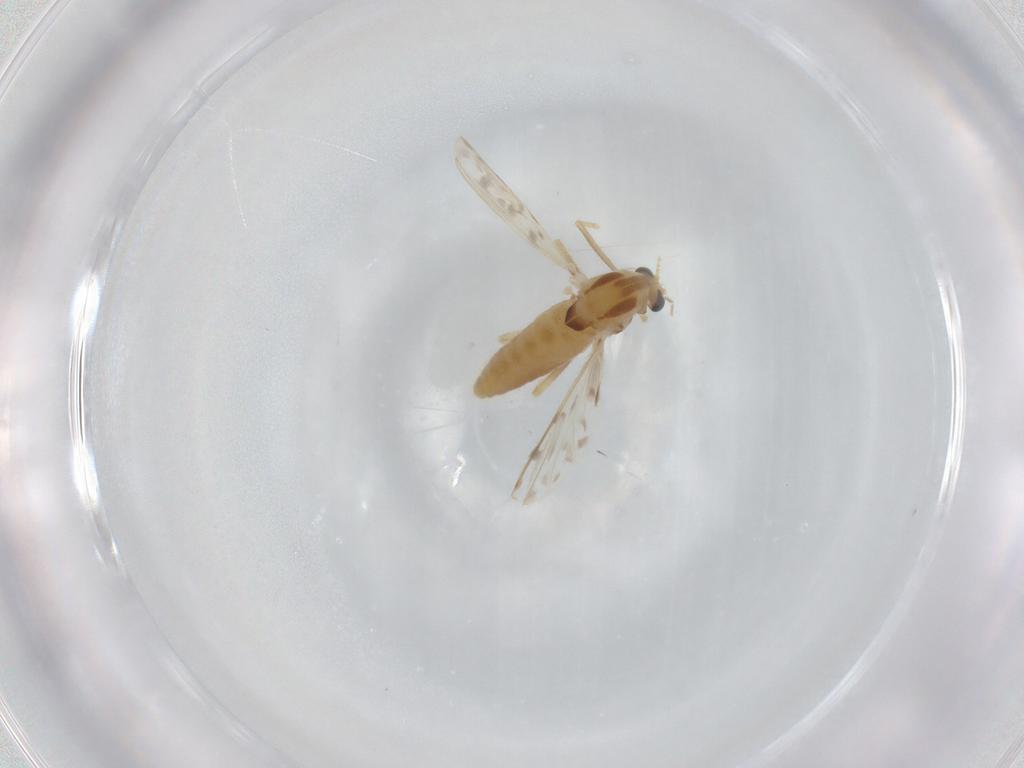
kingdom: Animalia
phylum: Arthropoda
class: Insecta
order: Diptera
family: Chironomidae
